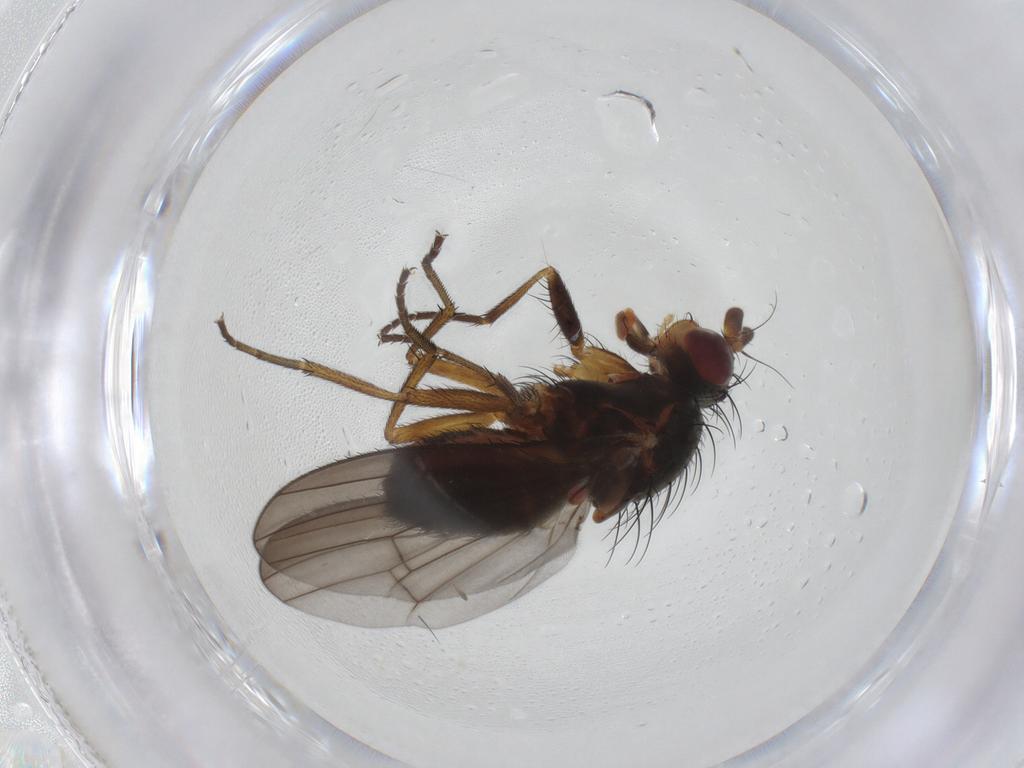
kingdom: Animalia
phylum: Arthropoda
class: Insecta
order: Diptera
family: Heleomyzidae
